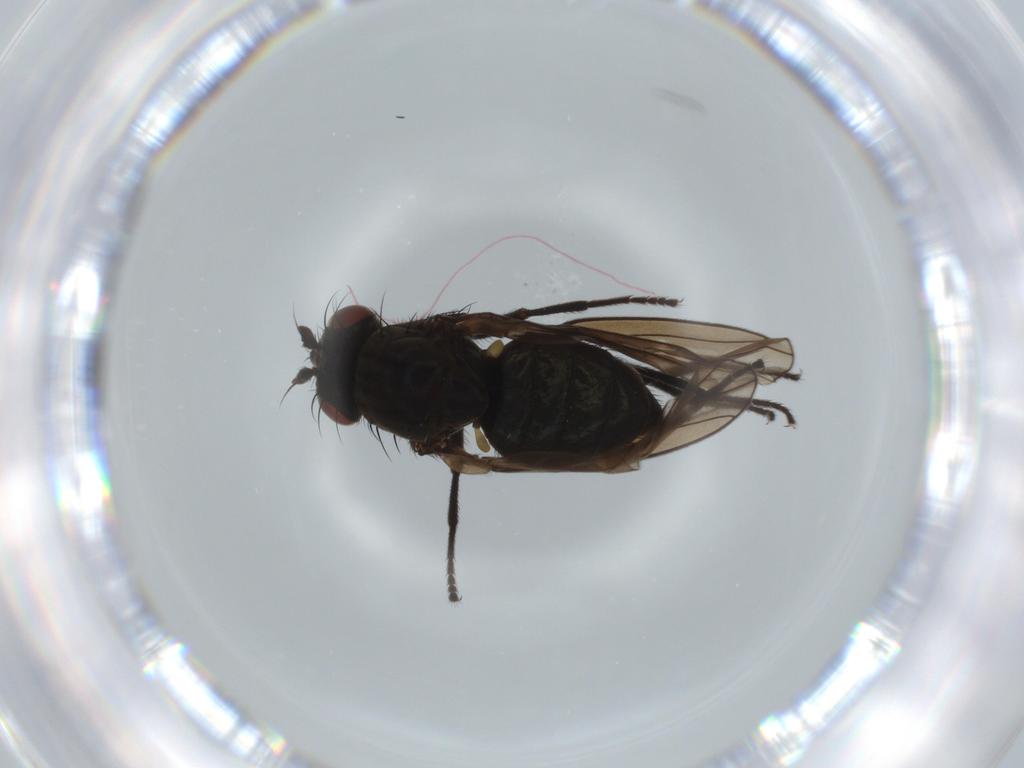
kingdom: Animalia
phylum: Arthropoda
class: Insecta
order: Diptera
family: Ephydridae
